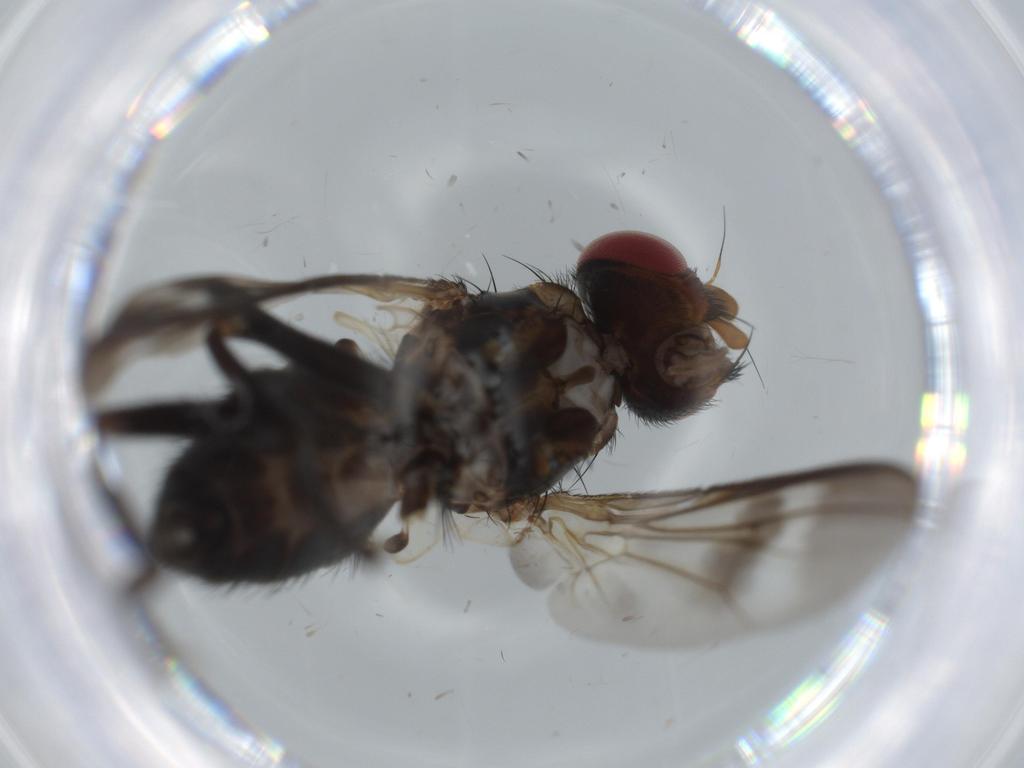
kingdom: Animalia
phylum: Arthropoda
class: Insecta
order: Diptera
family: Calliphoridae
